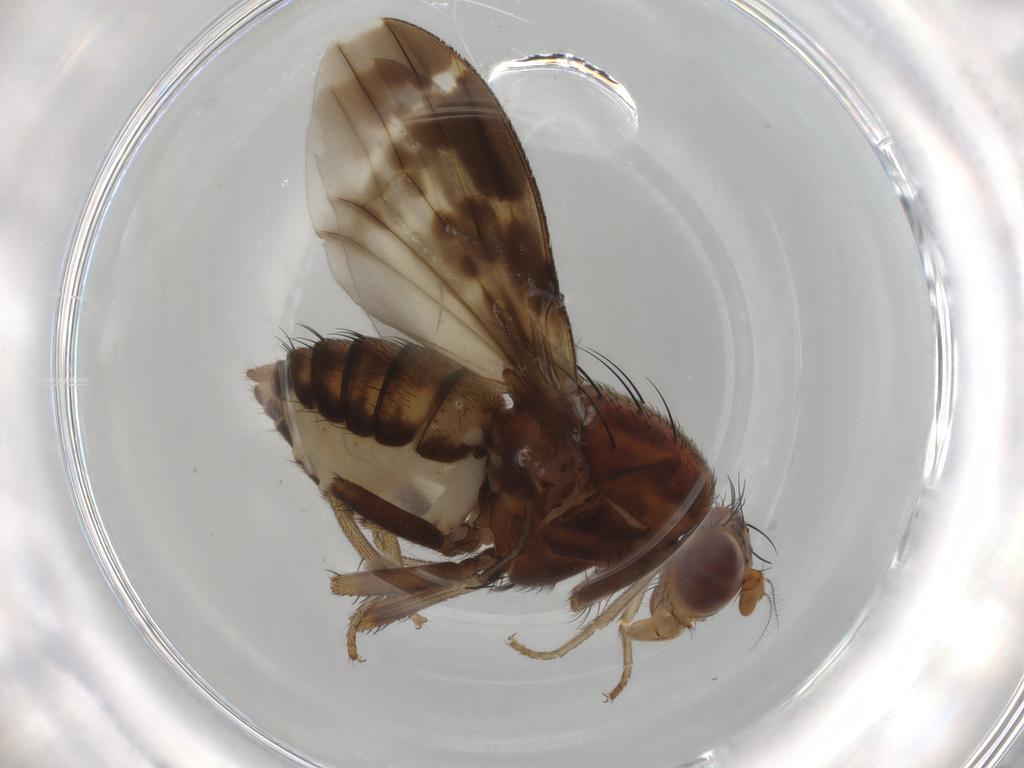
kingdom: Animalia
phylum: Arthropoda
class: Insecta
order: Diptera
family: Lauxaniidae
